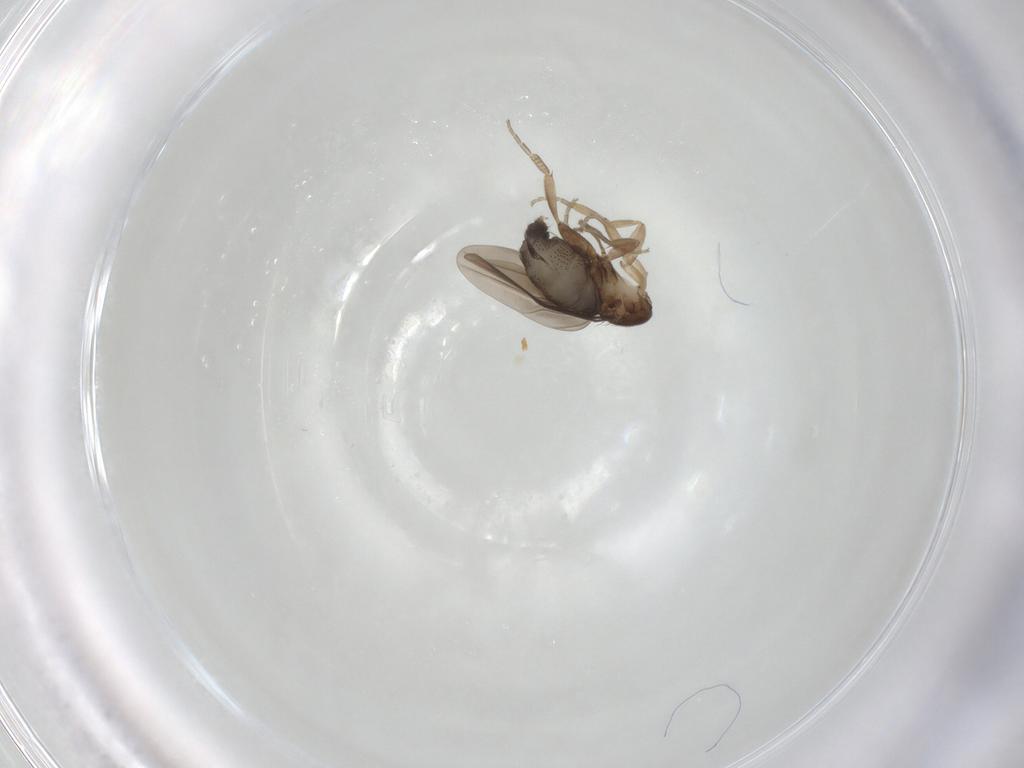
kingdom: Animalia
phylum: Arthropoda
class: Insecta
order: Diptera
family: Phoridae
